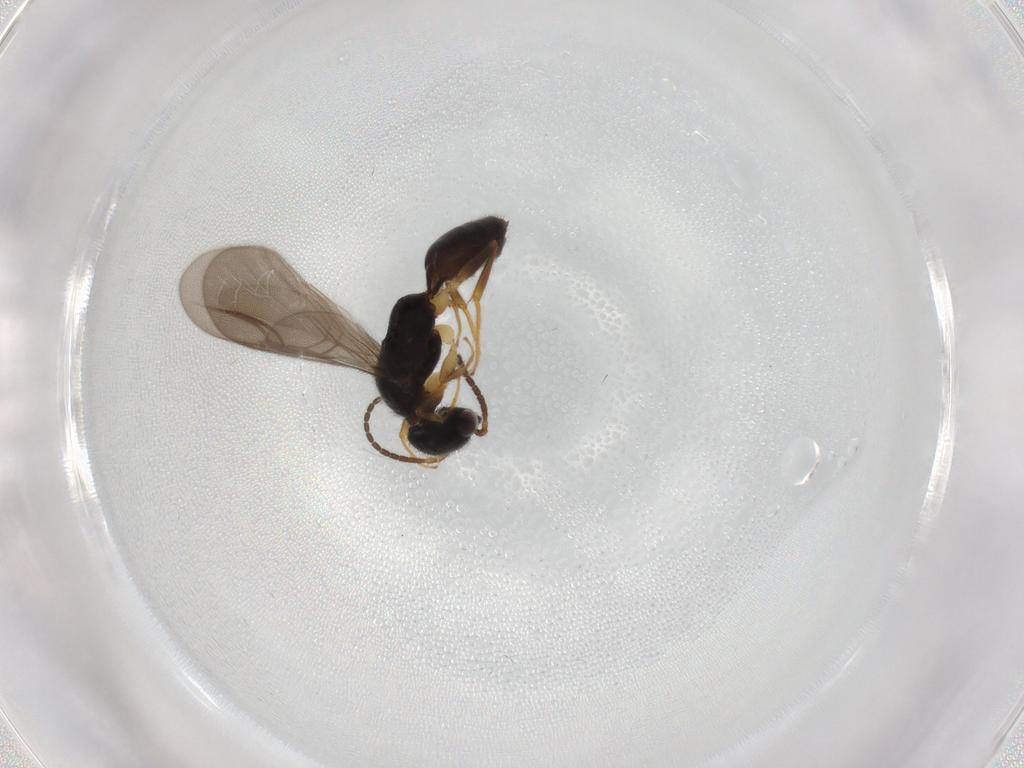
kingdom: Animalia
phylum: Arthropoda
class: Insecta
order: Hymenoptera
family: Bethylidae
